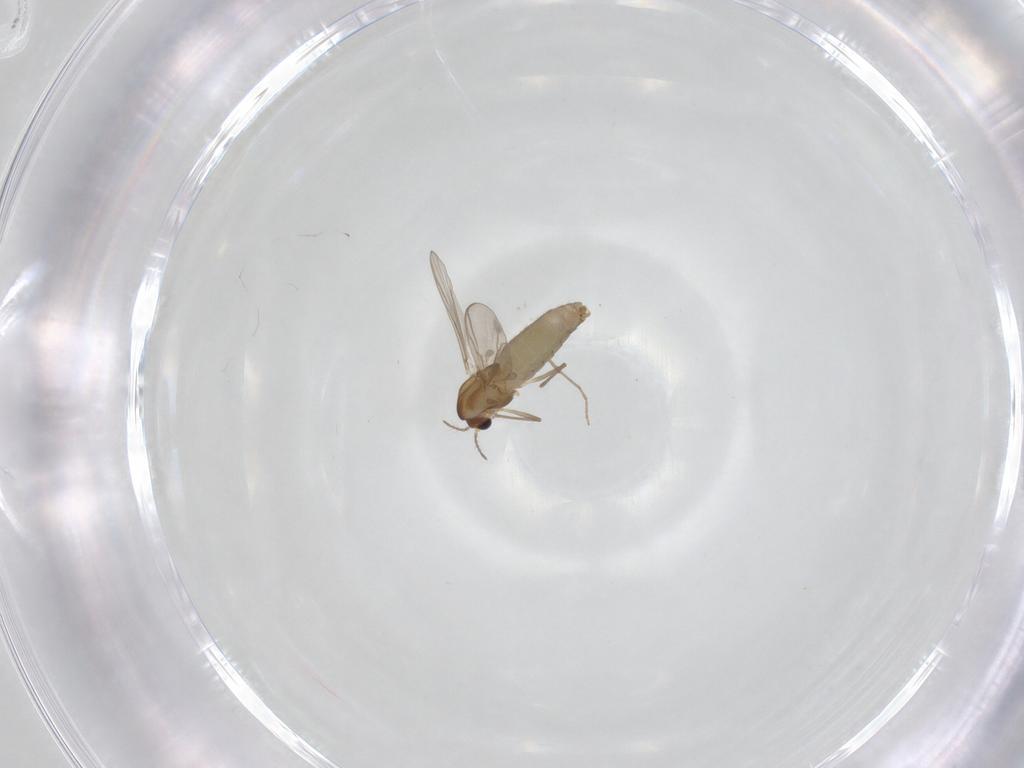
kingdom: Animalia
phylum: Arthropoda
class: Insecta
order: Diptera
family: Chironomidae
